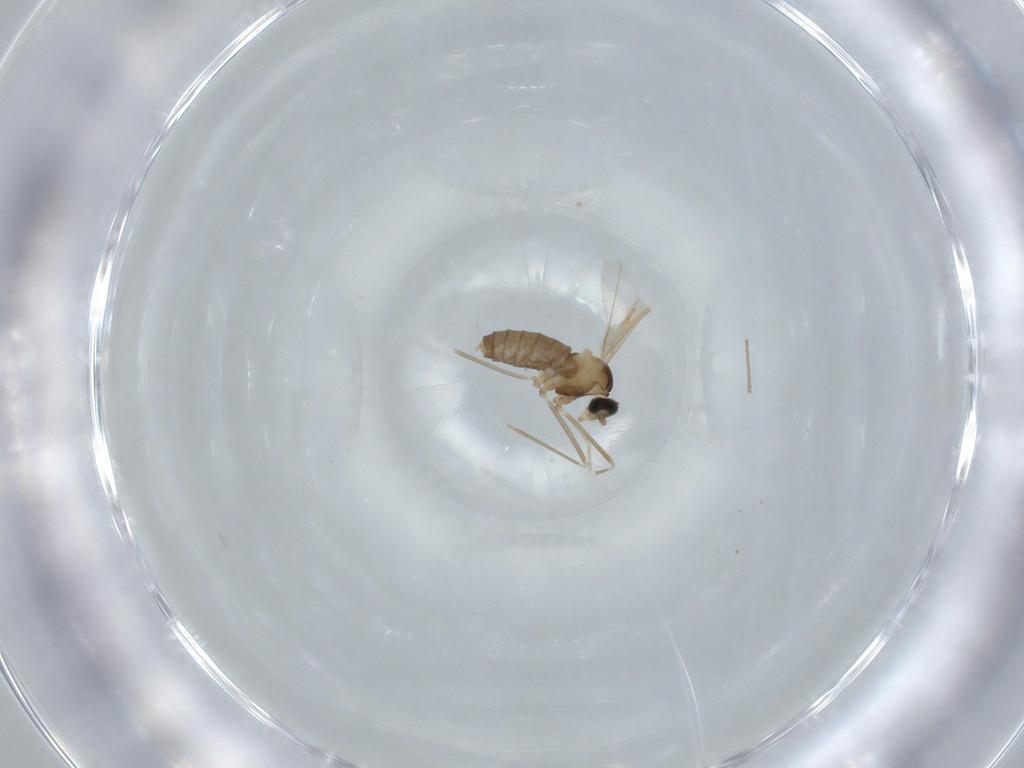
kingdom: Animalia
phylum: Arthropoda
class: Insecta
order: Diptera
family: Cecidomyiidae
